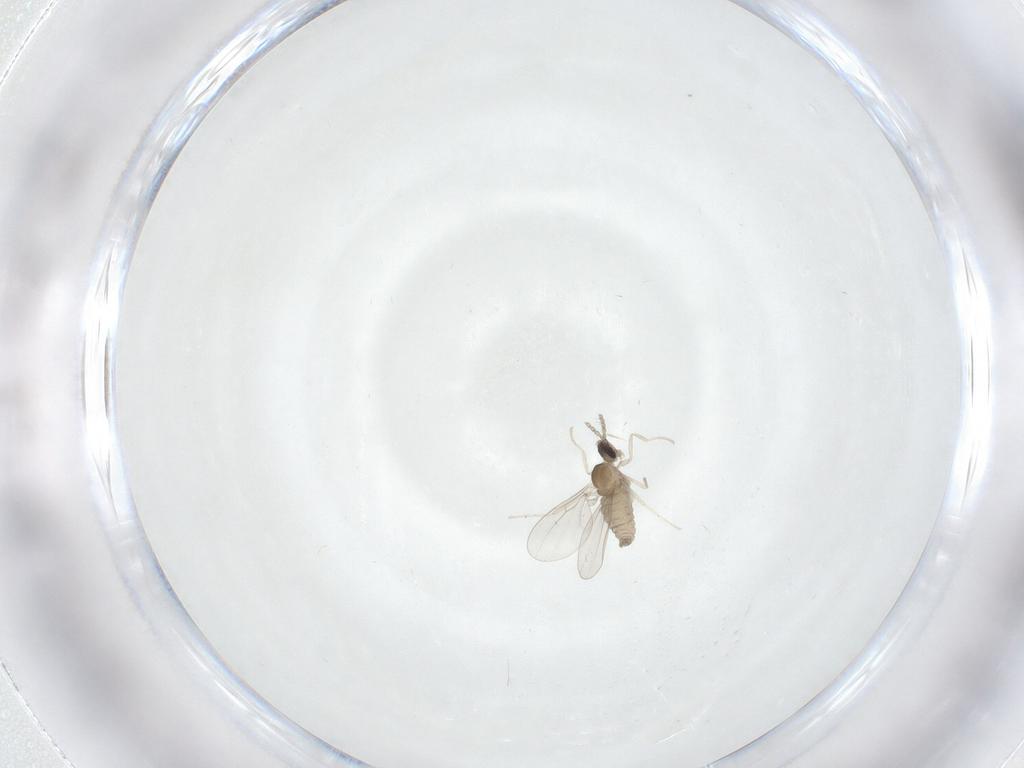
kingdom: Animalia
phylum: Arthropoda
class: Insecta
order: Diptera
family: Cecidomyiidae
